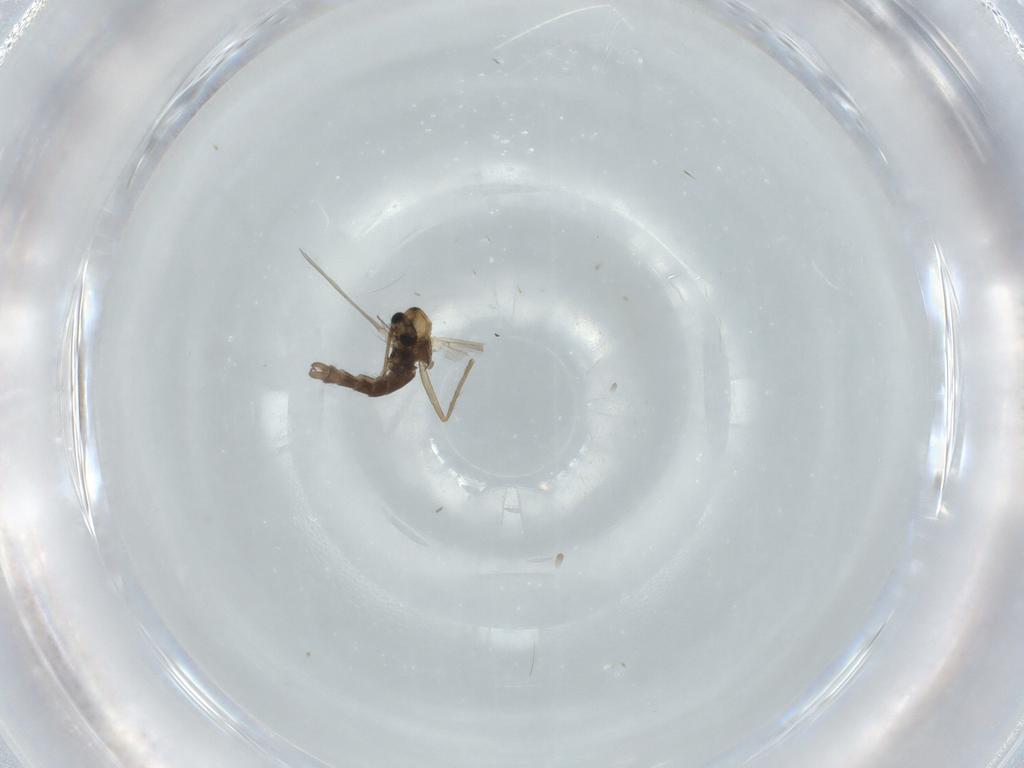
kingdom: Animalia
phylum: Arthropoda
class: Insecta
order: Diptera
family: Chironomidae
